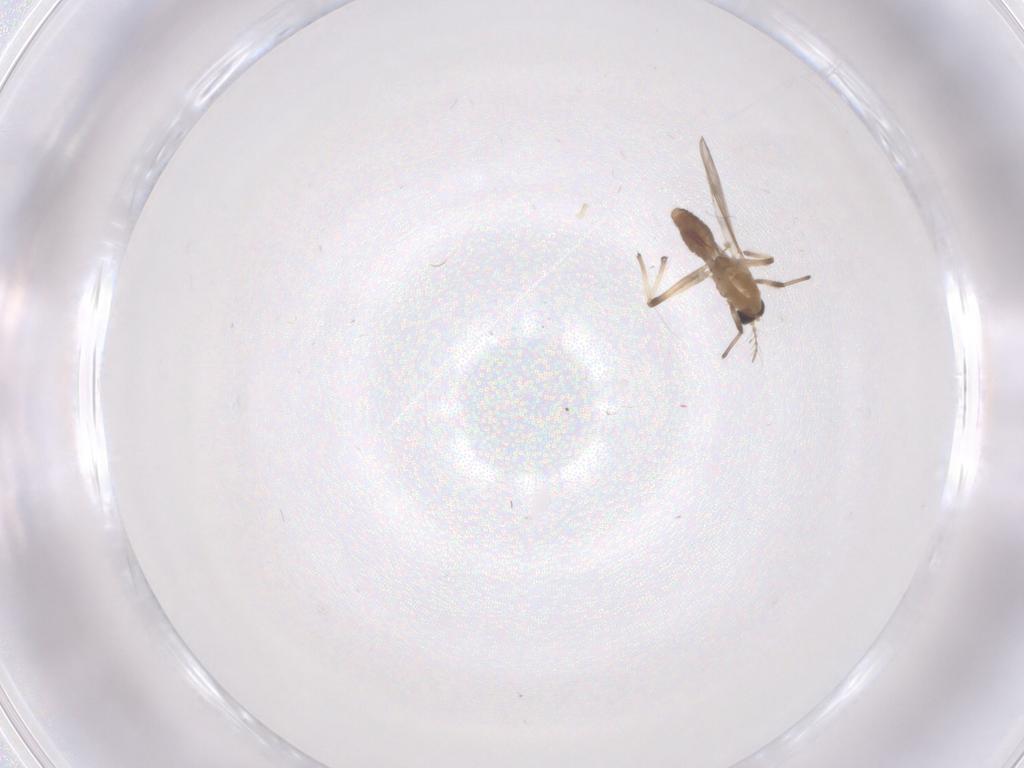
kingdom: Animalia
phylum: Arthropoda
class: Insecta
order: Diptera
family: Chironomidae
